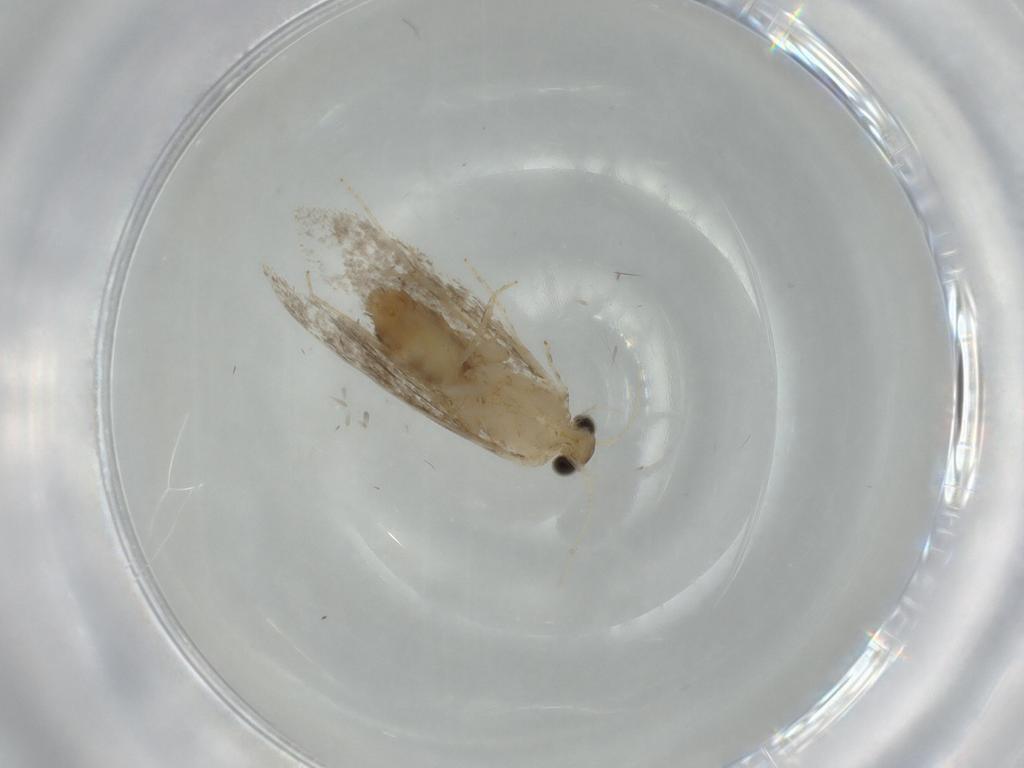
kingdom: Animalia
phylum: Arthropoda
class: Insecta
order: Lepidoptera
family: Tineidae
